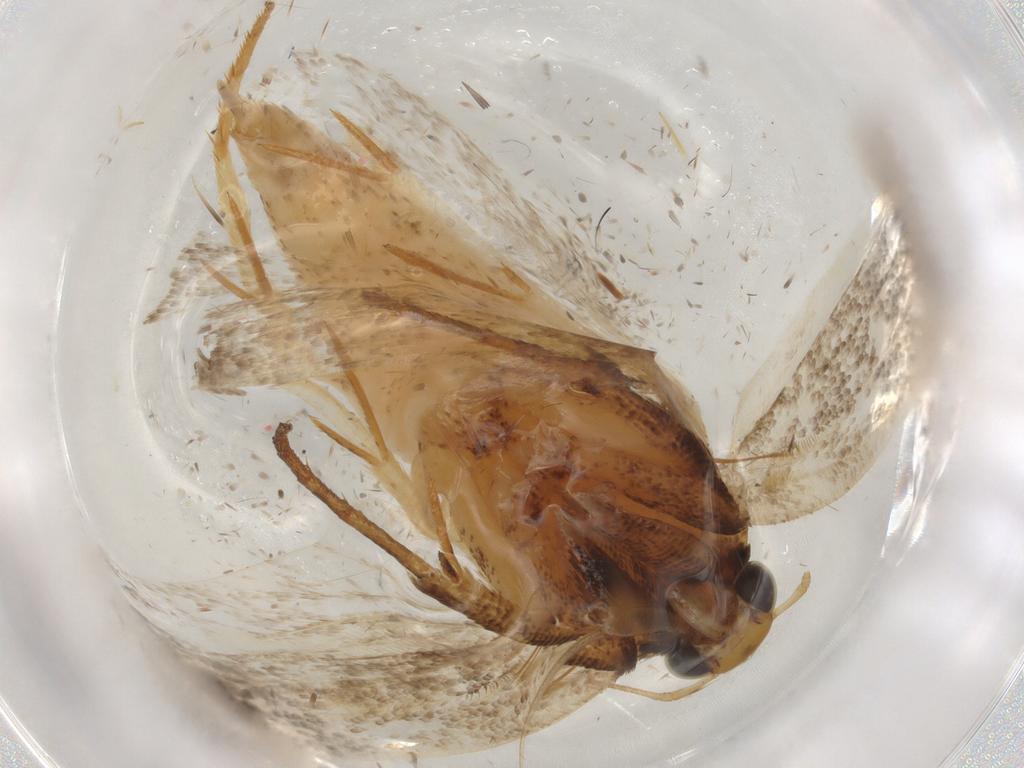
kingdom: Animalia
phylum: Arthropoda
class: Insecta
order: Lepidoptera
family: Gelechiidae
